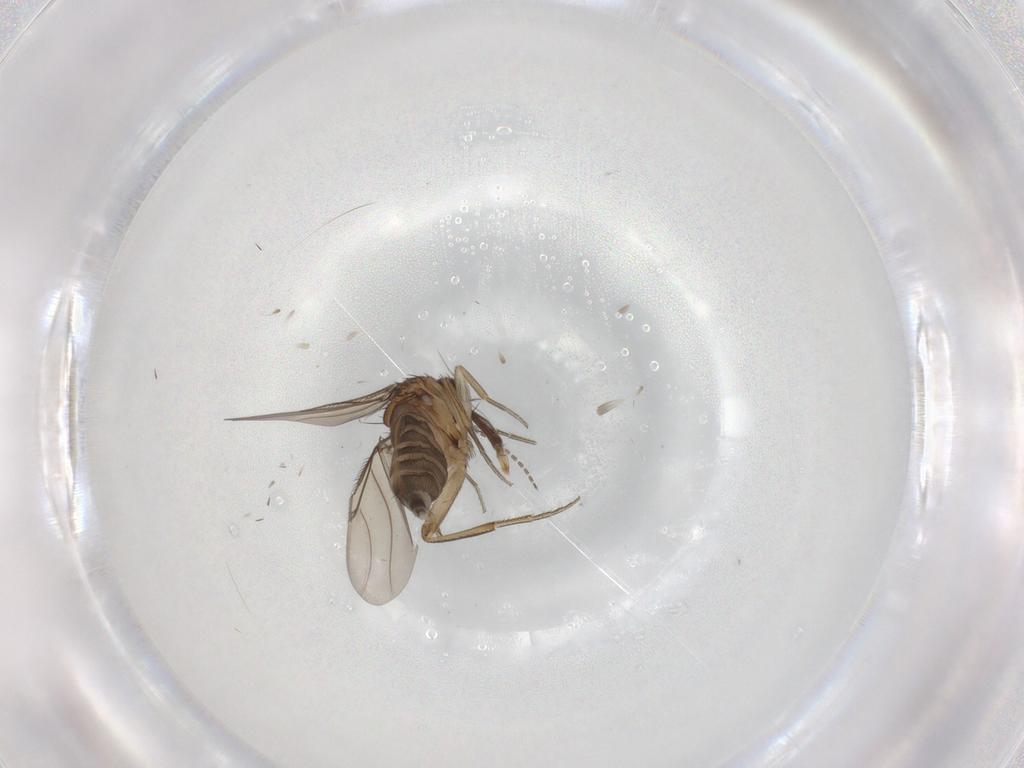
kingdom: Animalia
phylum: Arthropoda
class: Insecta
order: Diptera
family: Phoridae
